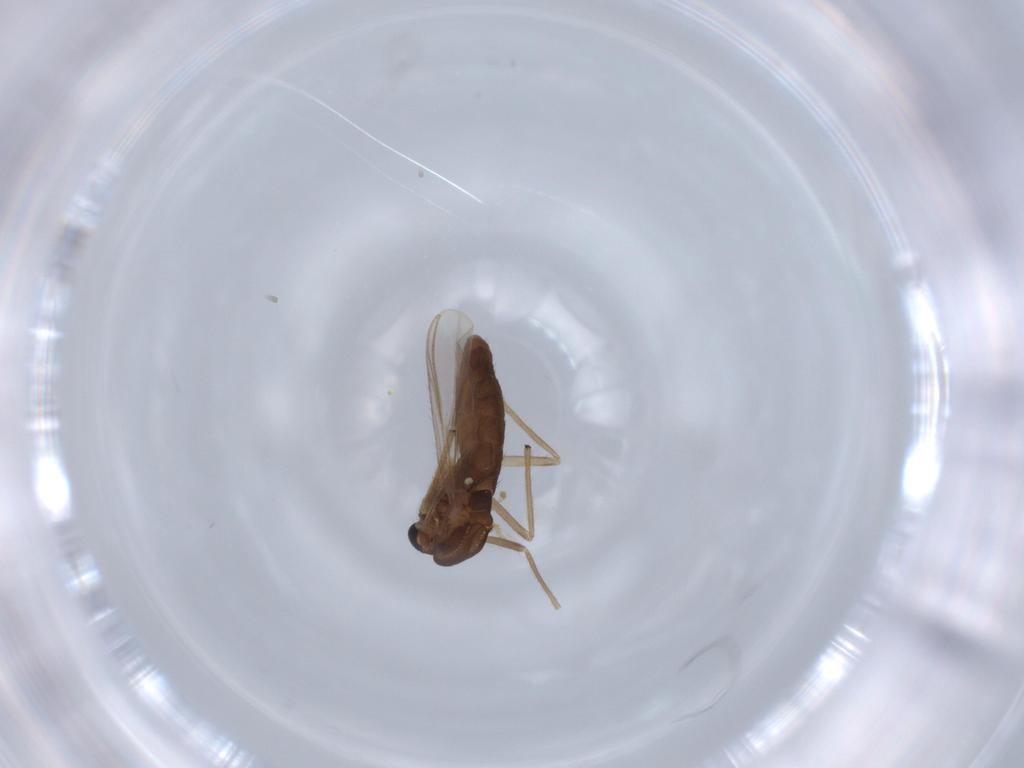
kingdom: Animalia
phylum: Arthropoda
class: Insecta
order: Diptera
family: Chironomidae
